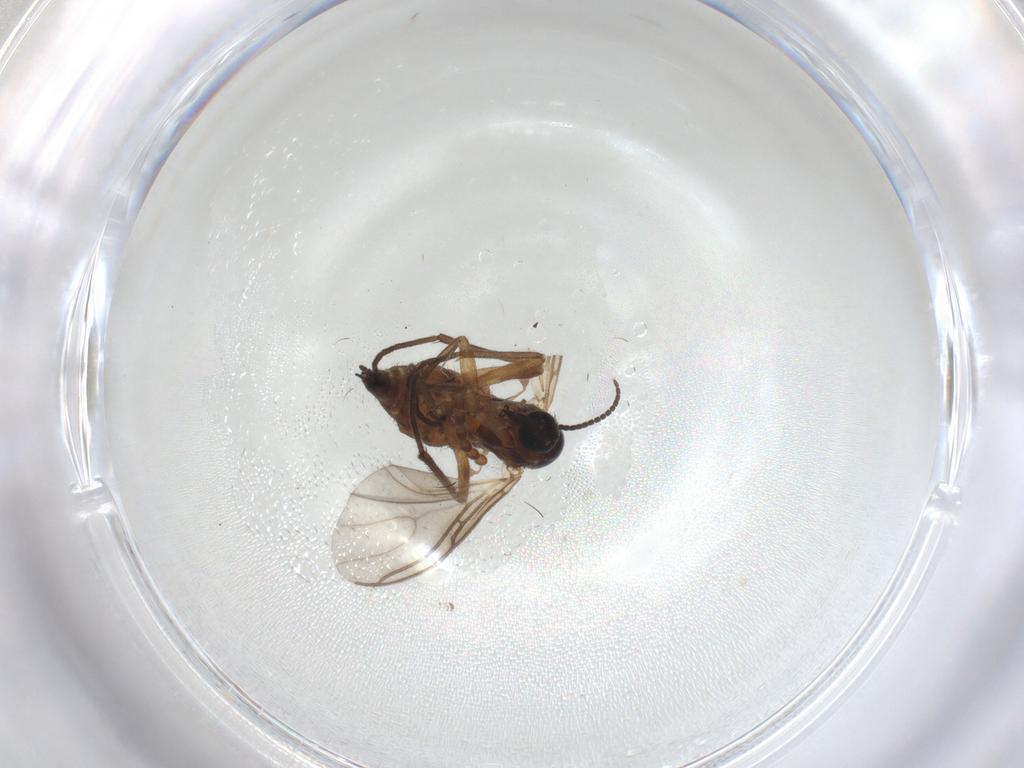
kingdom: Animalia
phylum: Arthropoda
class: Insecta
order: Diptera
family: Sciaridae
